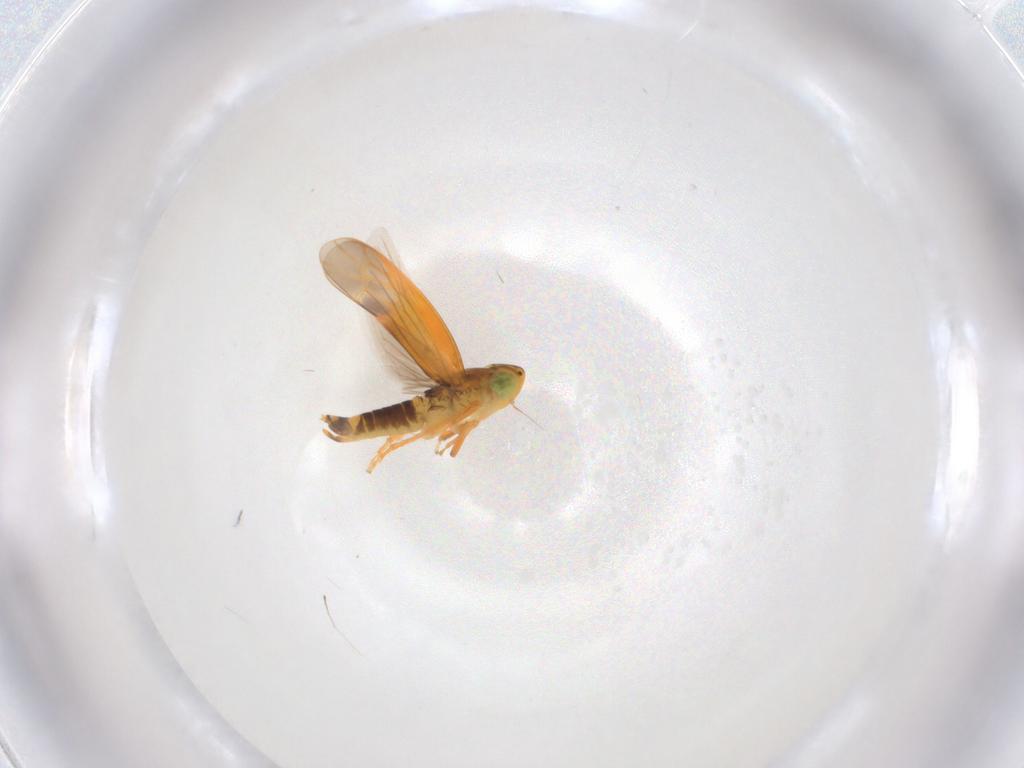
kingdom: Animalia
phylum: Arthropoda
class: Insecta
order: Hemiptera
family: Cicadellidae
